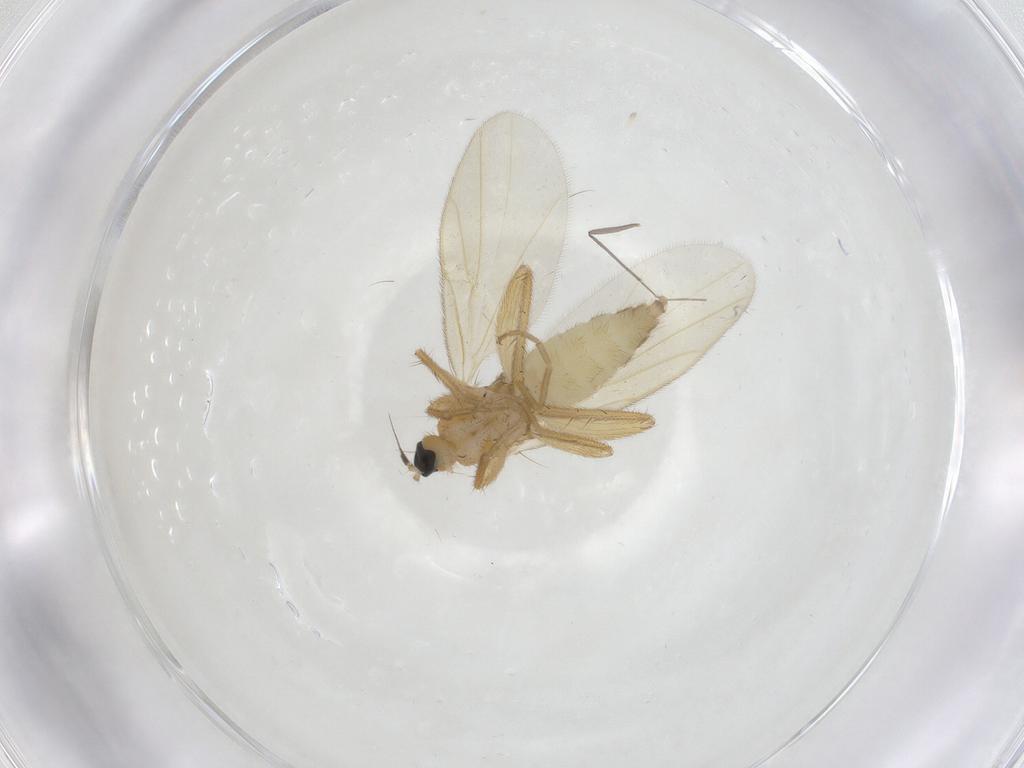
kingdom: Animalia
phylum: Arthropoda
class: Insecta
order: Diptera
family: Hybotidae
